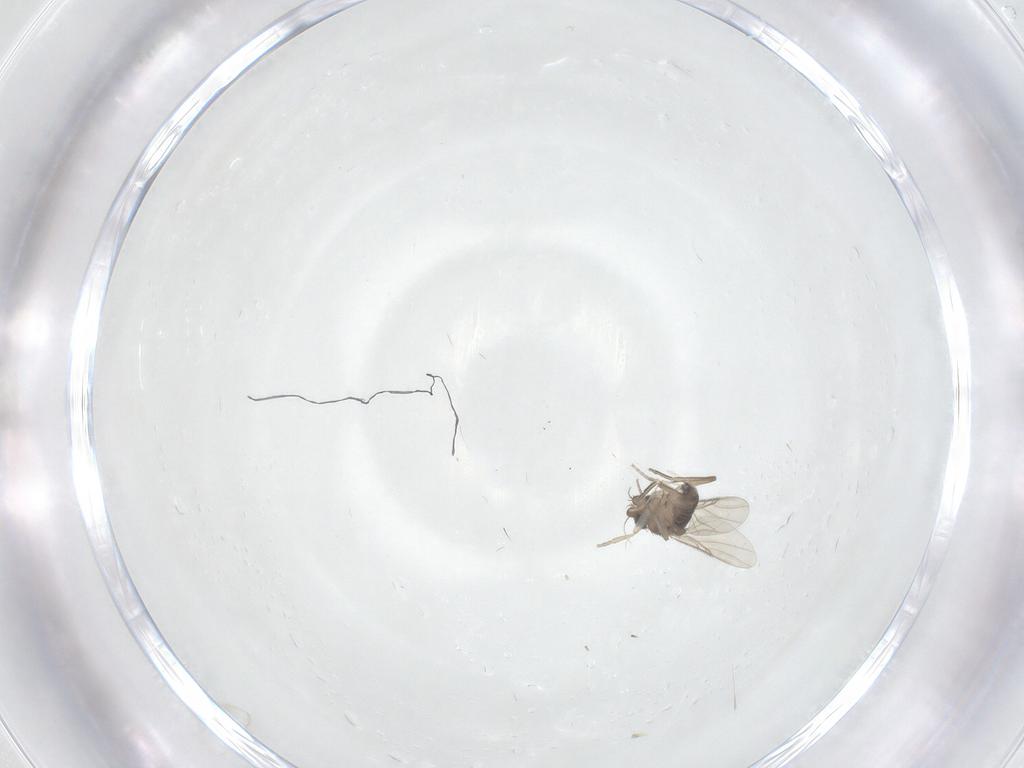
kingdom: Animalia
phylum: Arthropoda
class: Insecta
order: Diptera
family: Phoridae
